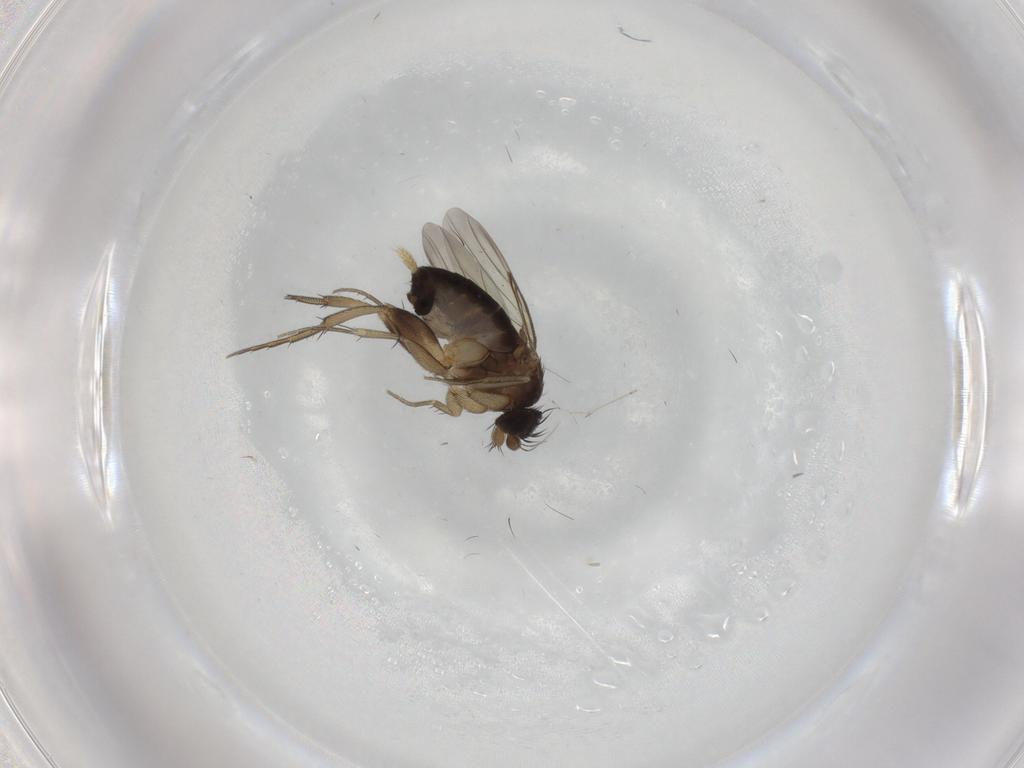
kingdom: Animalia
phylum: Arthropoda
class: Insecta
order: Diptera
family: Phoridae
